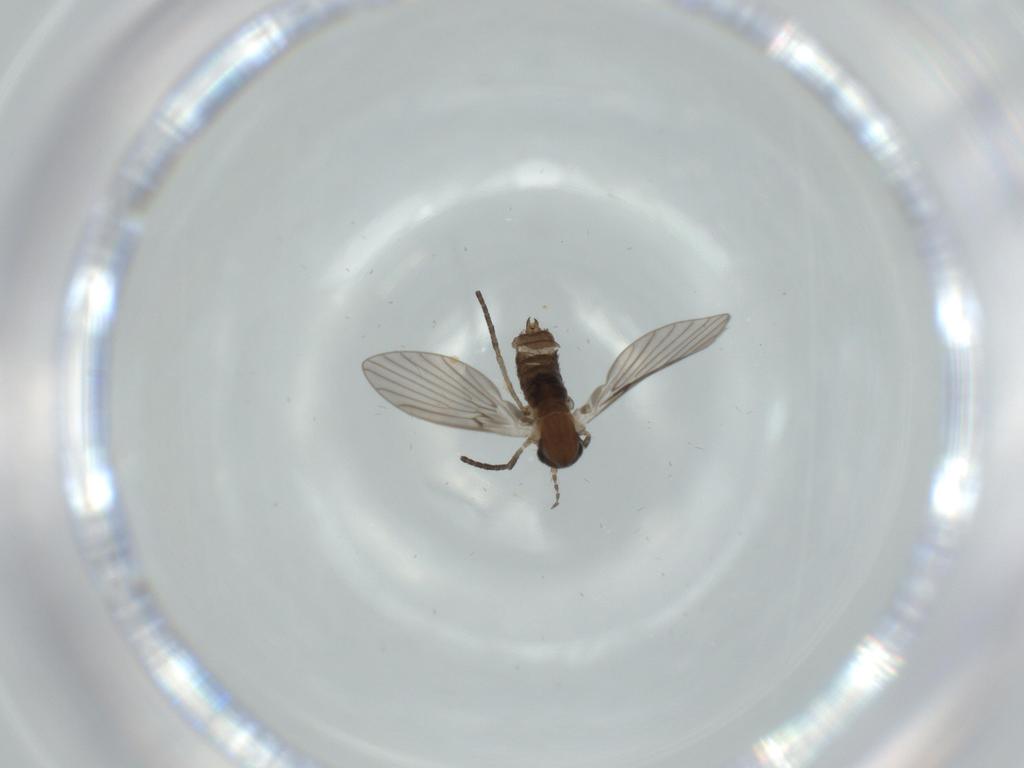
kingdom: Animalia
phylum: Arthropoda
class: Insecta
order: Diptera
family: Psychodidae
